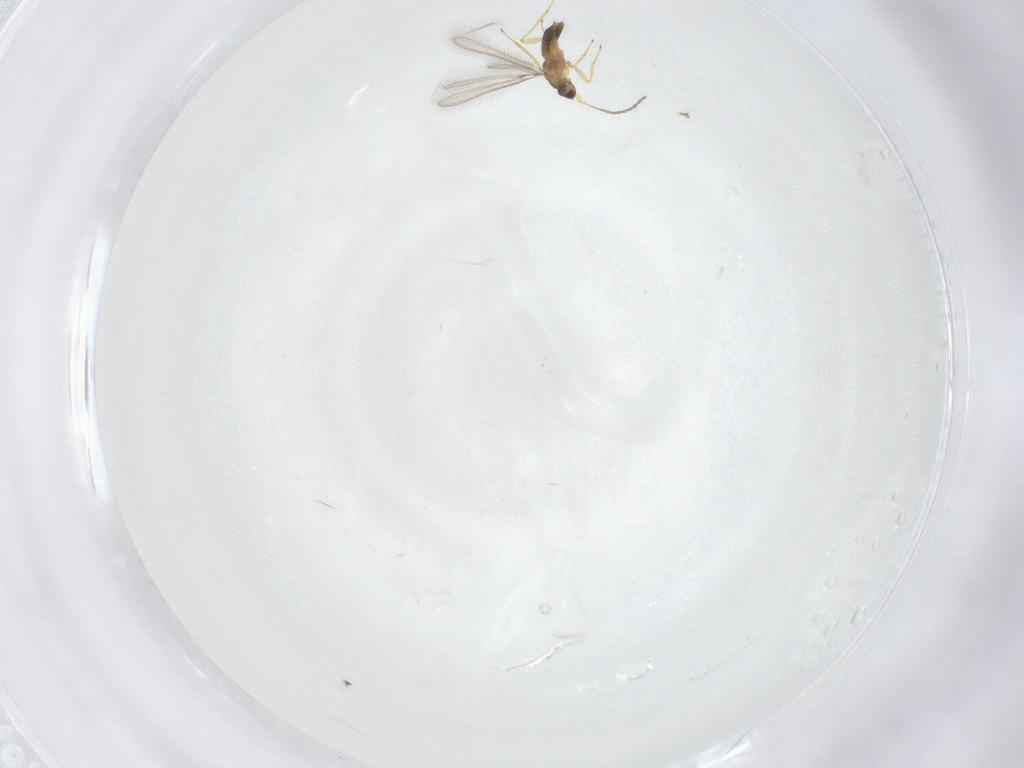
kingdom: Animalia
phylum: Arthropoda
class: Insecta
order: Hymenoptera
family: Mymaridae
